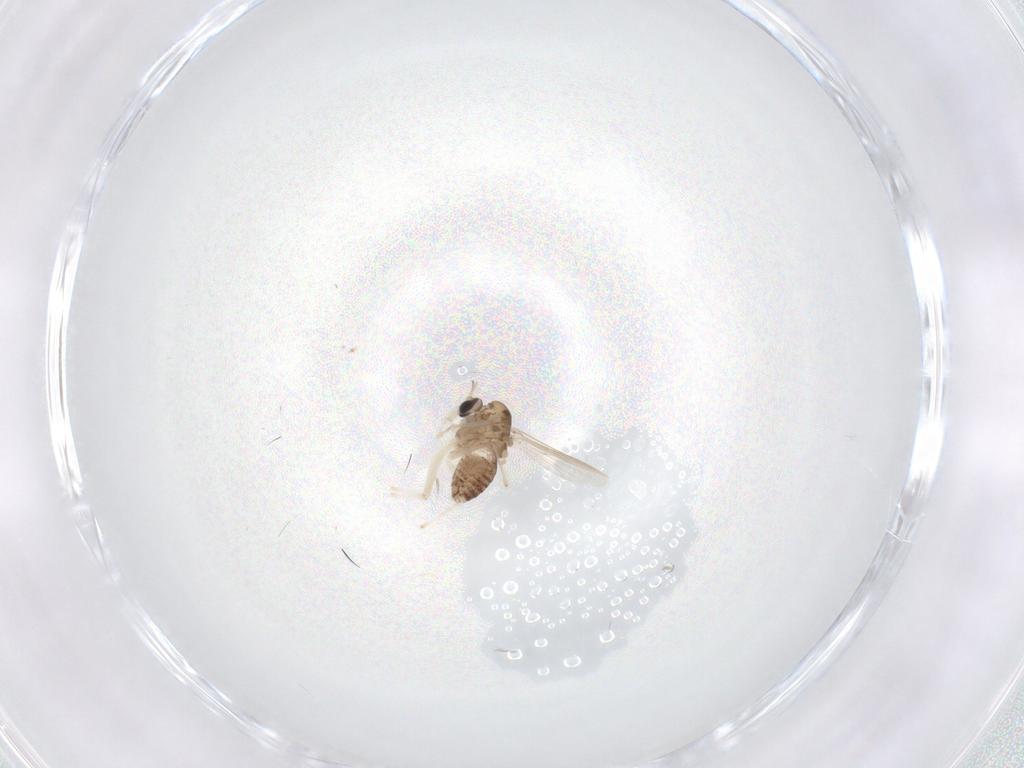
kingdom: Animalia
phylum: Arthropoda
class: Insecta
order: Diptera
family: Chironomidae
